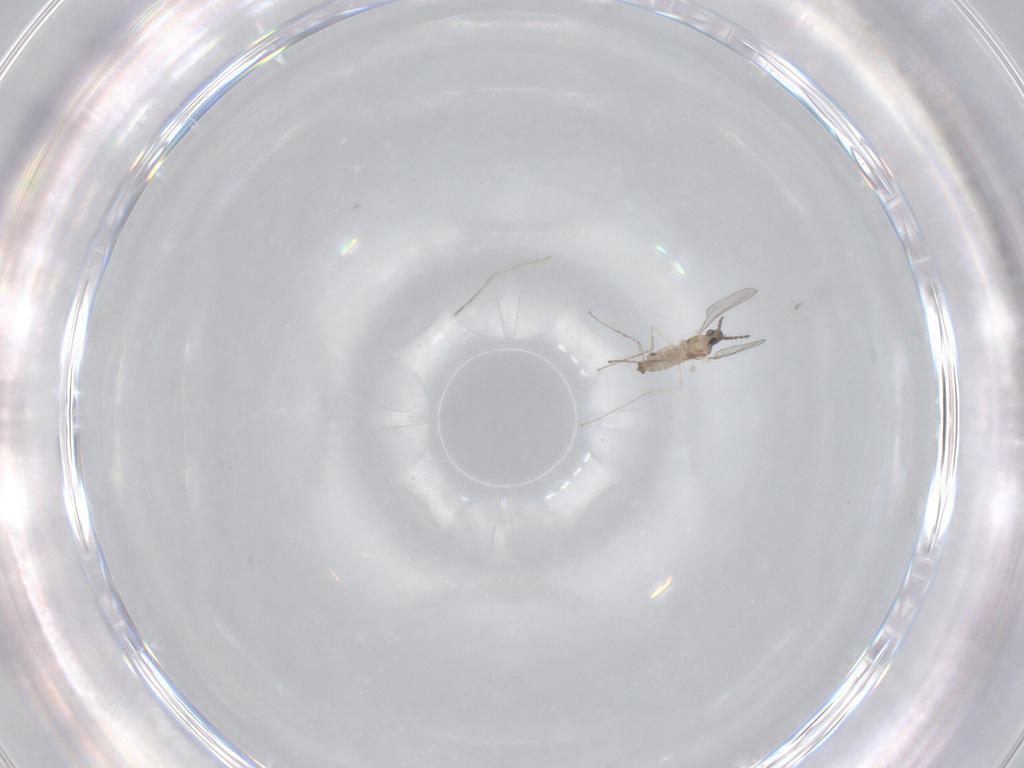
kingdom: Animalia
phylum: Arthropoda
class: Insecta
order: Diptera
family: Cecidomyiidae
